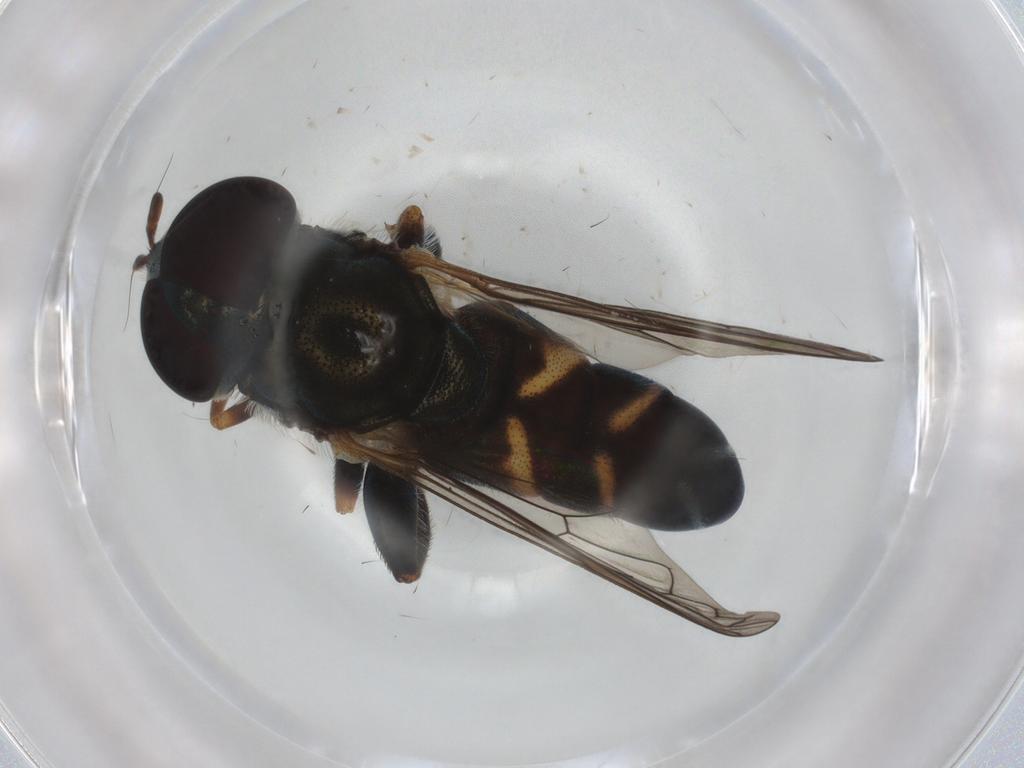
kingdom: Animalia
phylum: Arthropoda
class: Insecta
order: Diptera
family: Syrphidae
